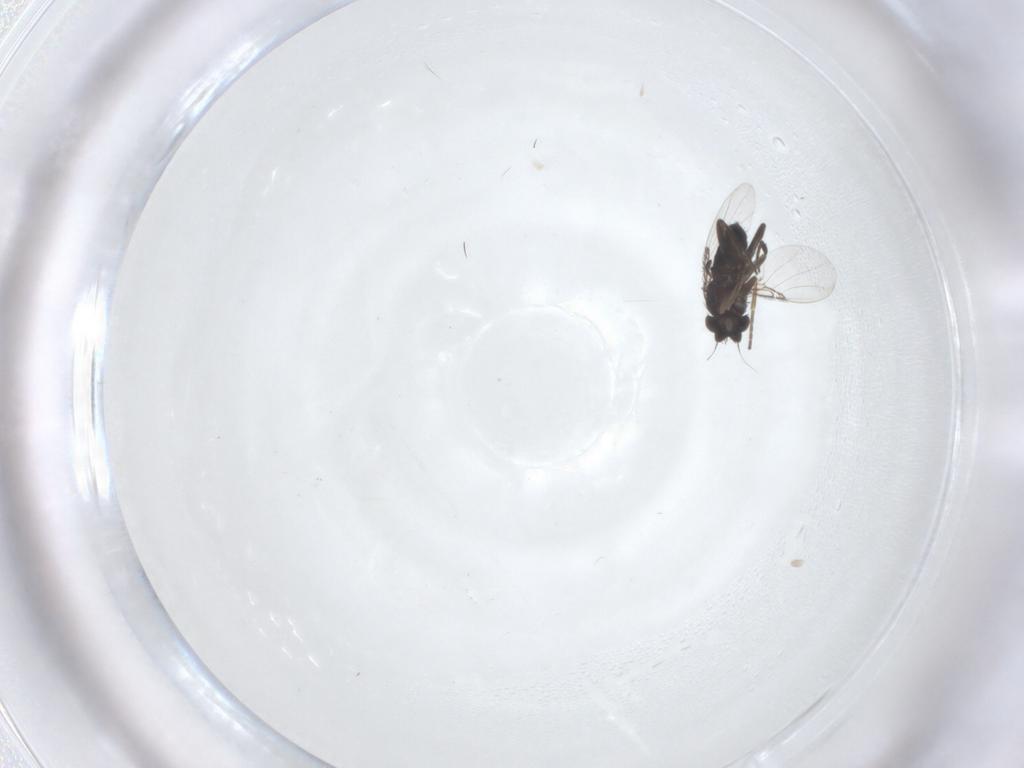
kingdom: Animalia
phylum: Arthropoda
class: Insecta
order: Diptera
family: Phoridae
